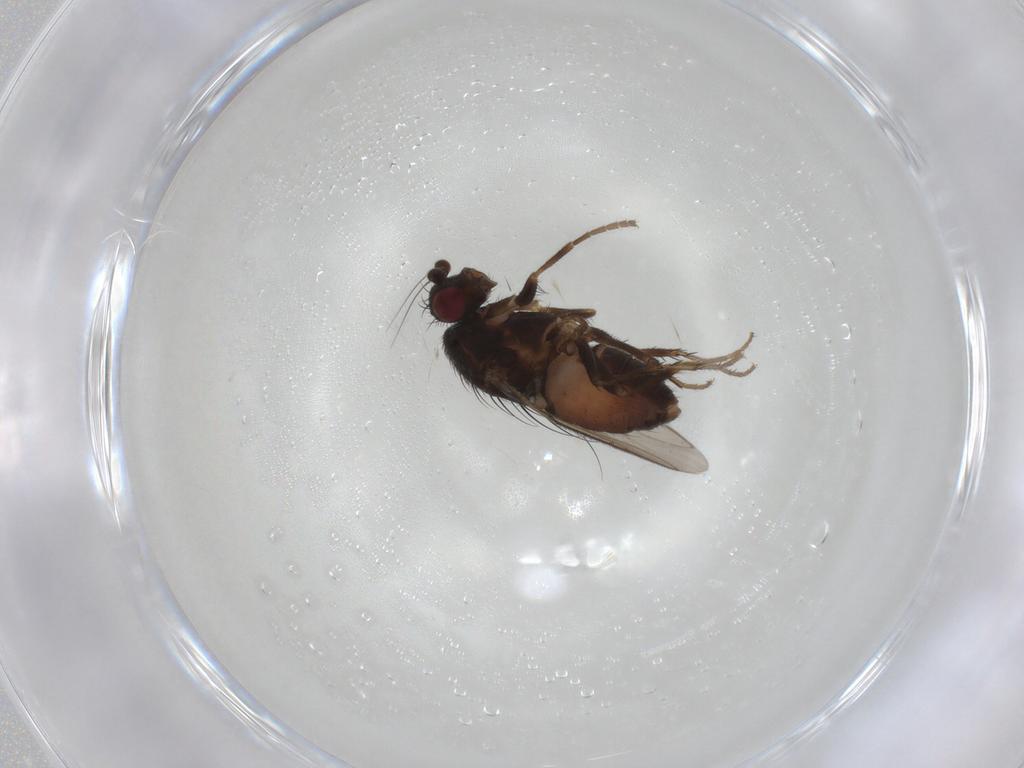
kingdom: Animalia
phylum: Arthropoda
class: Insecta
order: Diptera
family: Sphaeroceridae
